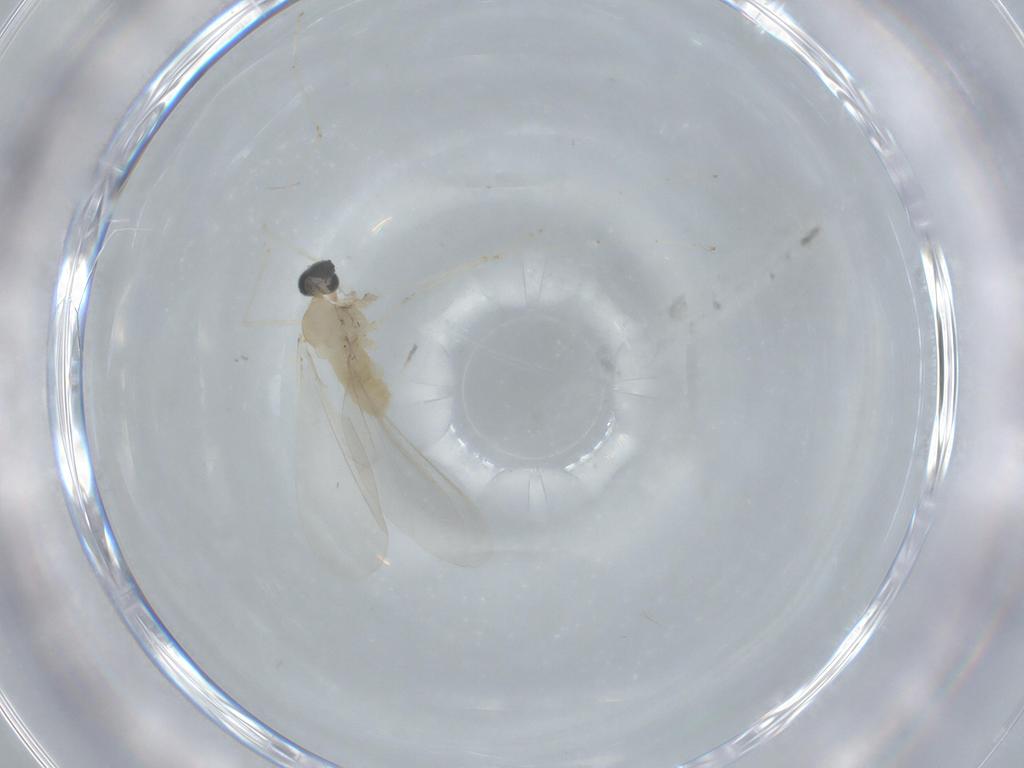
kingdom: Animalia
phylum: Arthropoda
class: Insecta
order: Diptera
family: Cecidomyiidae
